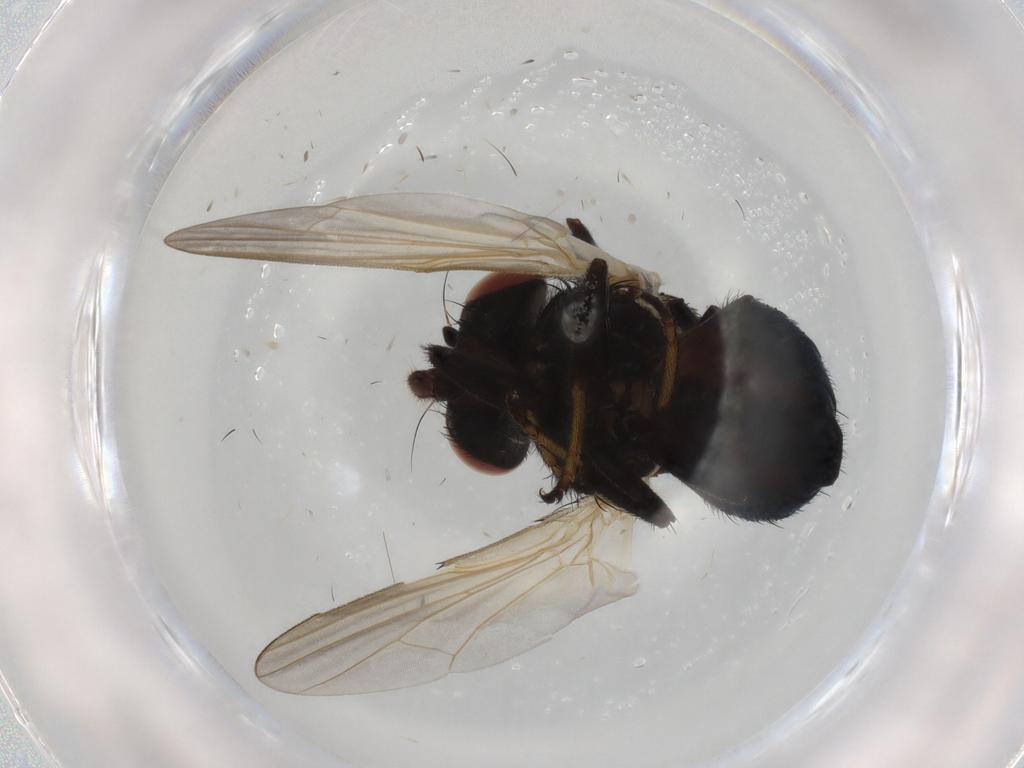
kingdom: Animalia
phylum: Arthropoda
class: Insecta
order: Diptera
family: Lonchaeidae
